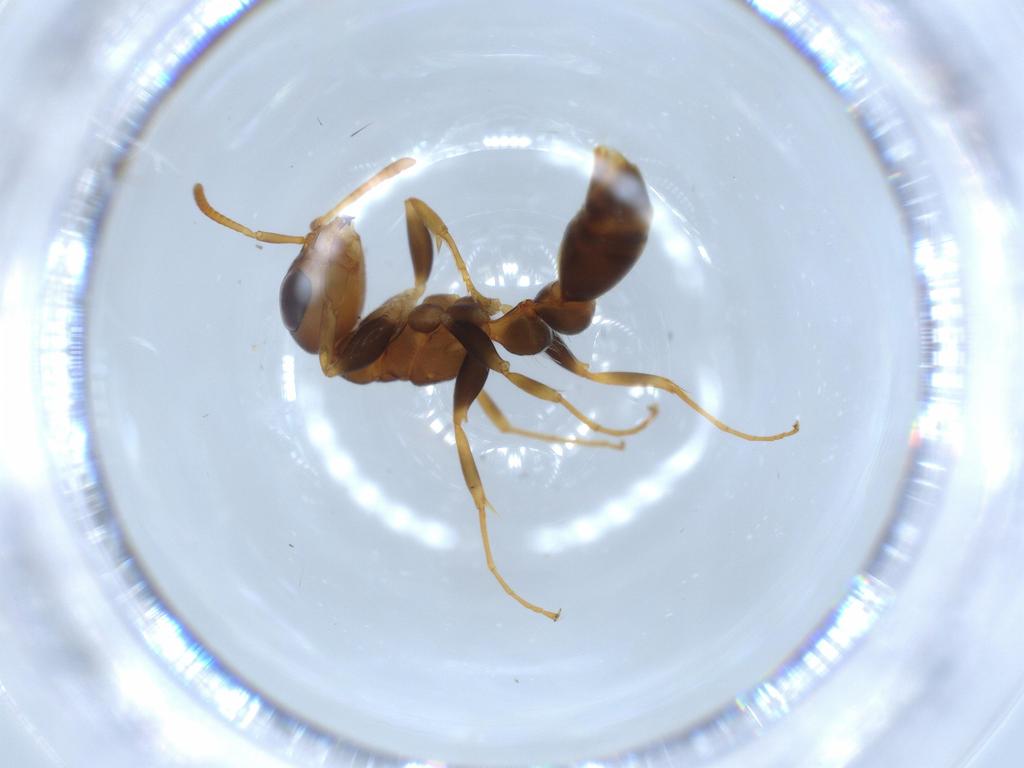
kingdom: Animalia
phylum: Arthropoda
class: Insecta
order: Hymenoptera
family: Formicidae
